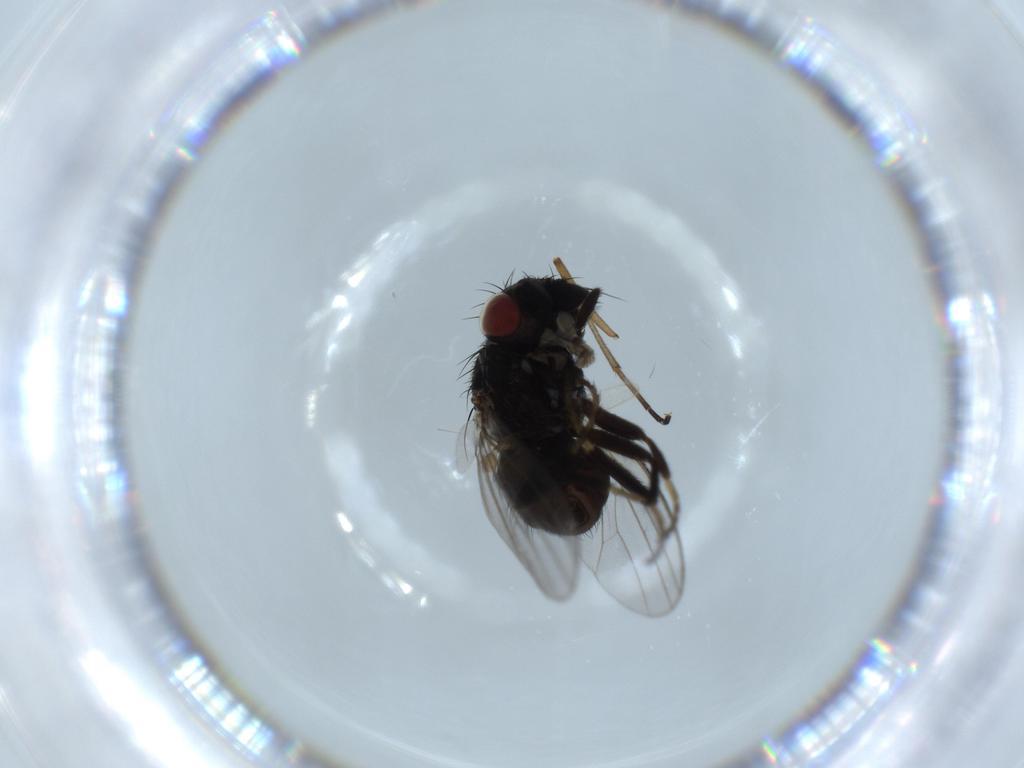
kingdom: Animalia
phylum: Arthropoda
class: Insecta
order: Diptera
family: Milichiidae
